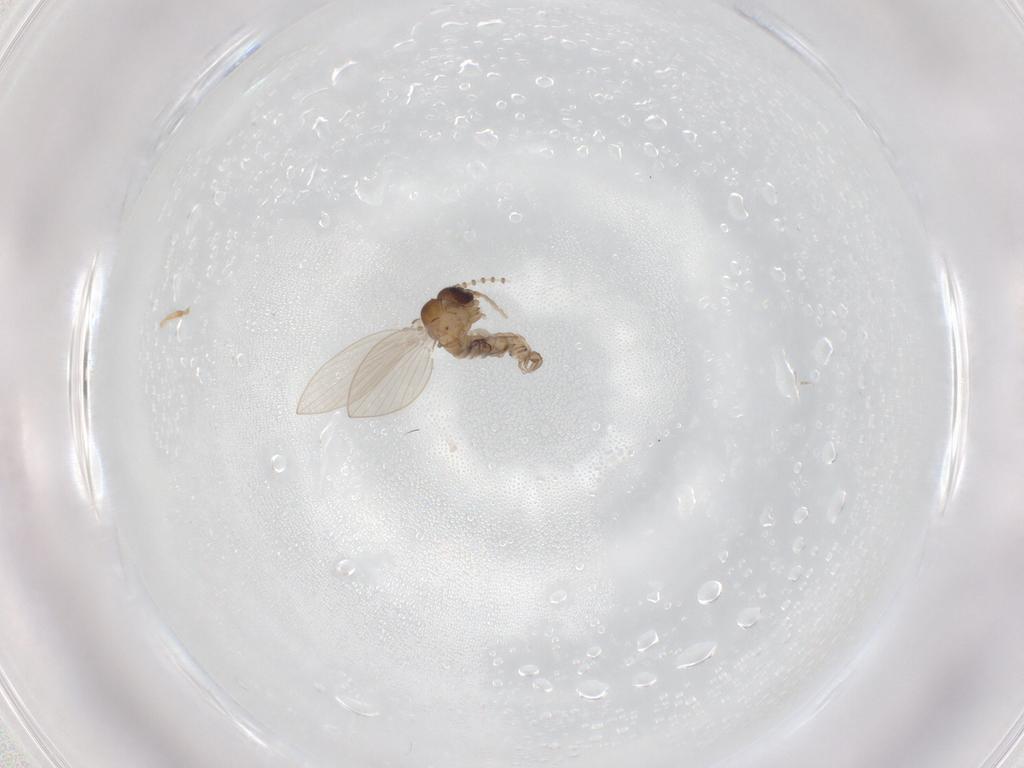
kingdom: Animalia
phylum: Arthropoda
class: Insecta
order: Diptera
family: Psychodidae
